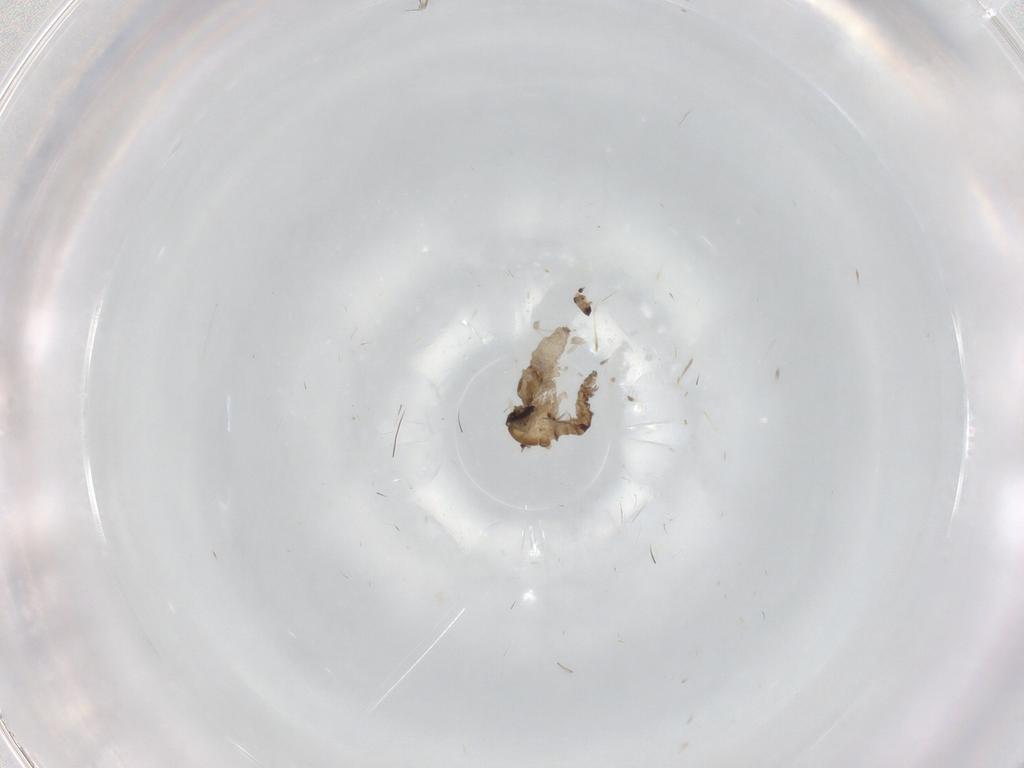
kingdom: Animalia
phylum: Arthropoda
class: Insecta
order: Diptera
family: Psychodidae
